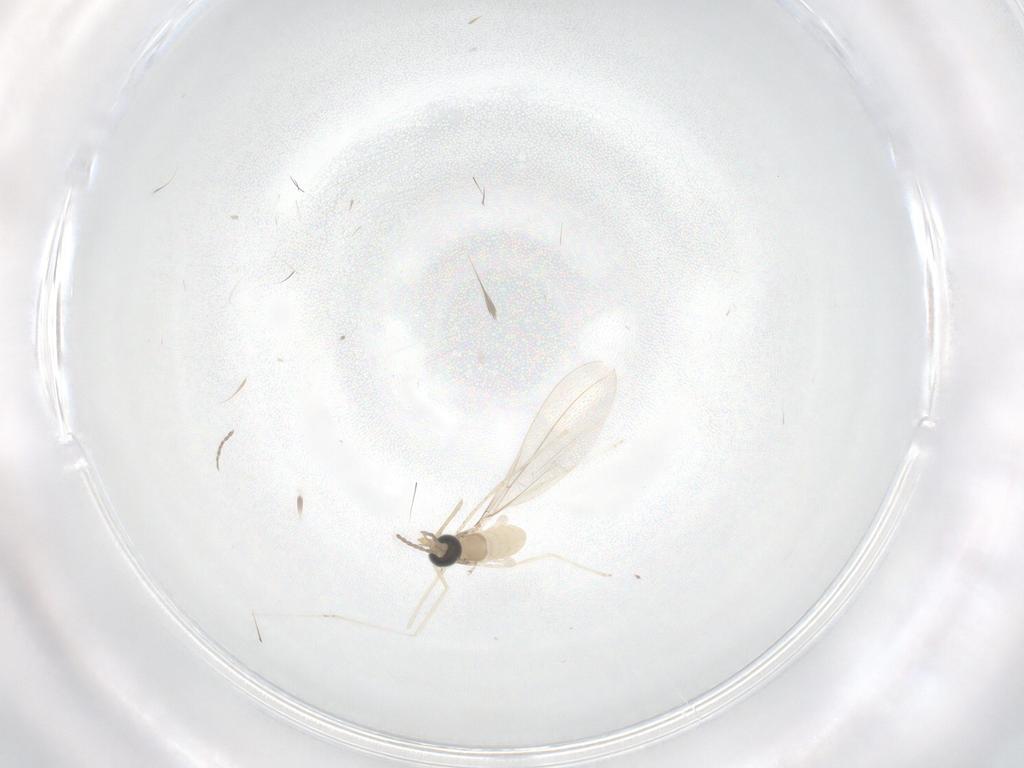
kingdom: Animalia
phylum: Arthropoda
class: Insecta
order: Diptera
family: Cecidomyiidae
